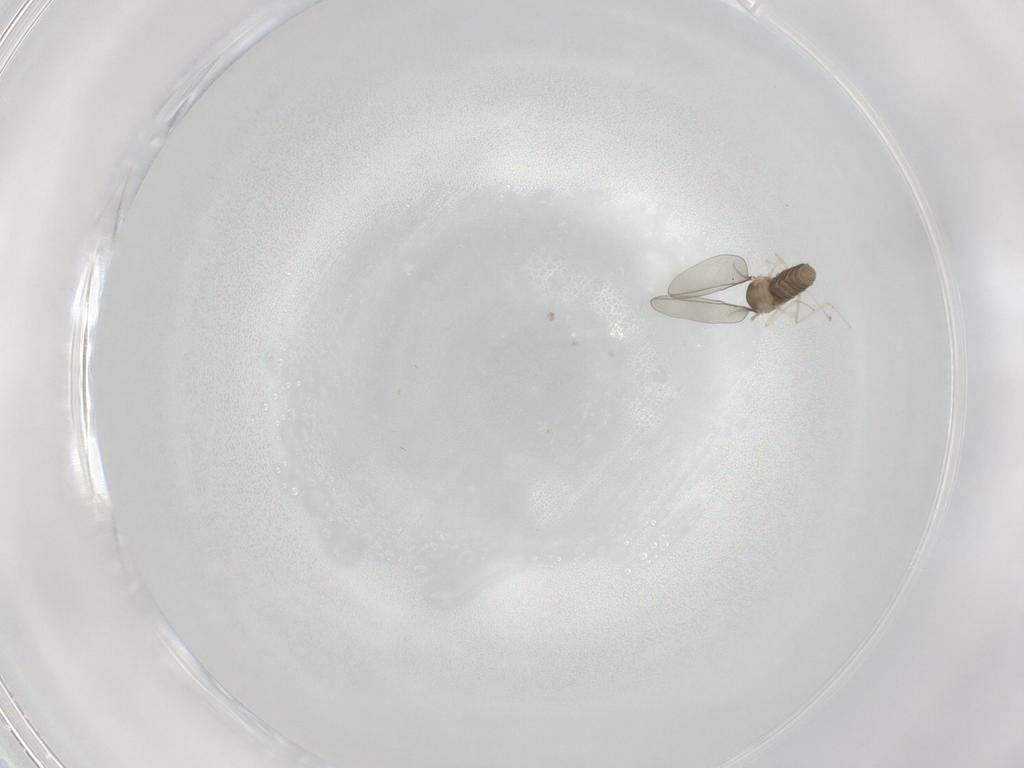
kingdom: Animalia
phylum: Arthropoda
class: Insecta
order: Diptera
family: Cecidomyiidae
